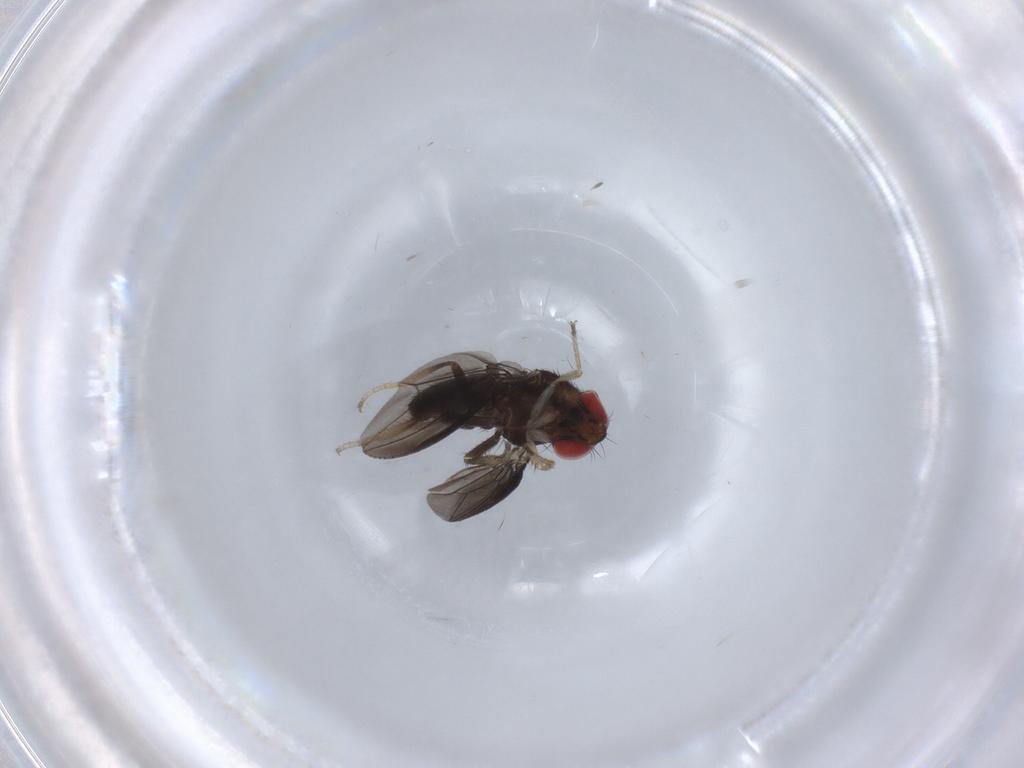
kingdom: Animalia
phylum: Arthropoda
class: Insecta
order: Diptera
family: Drosophilidae
